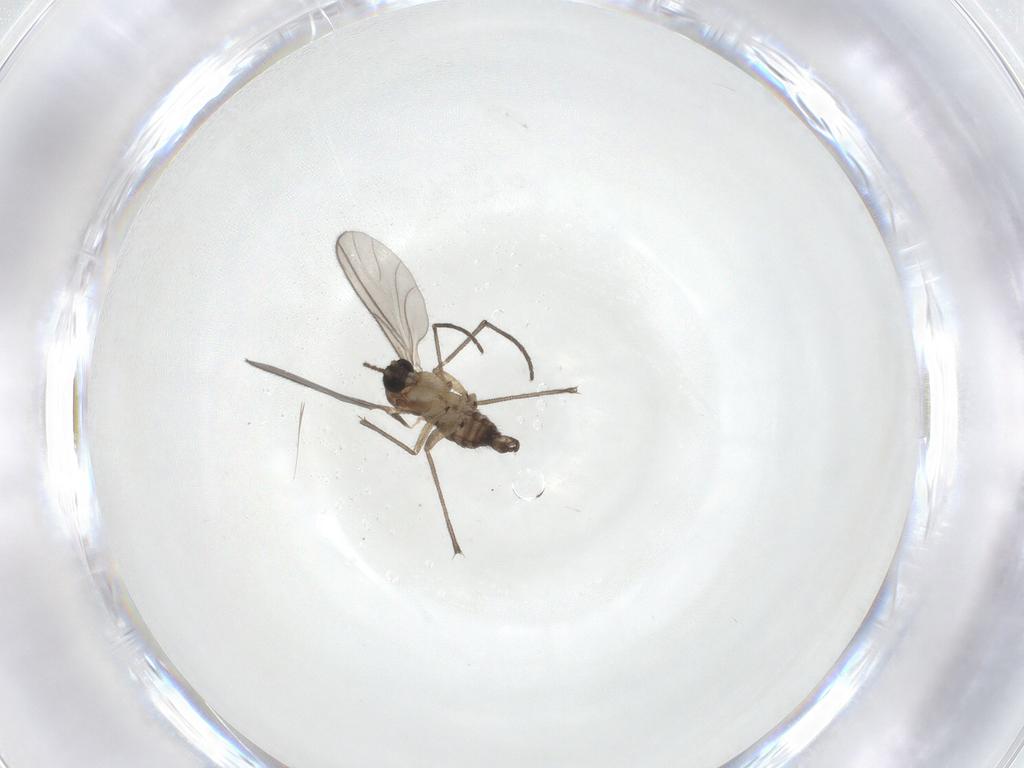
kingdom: Animalia
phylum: Arthropoda
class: Insecta
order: Diptera
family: Sciaridae
